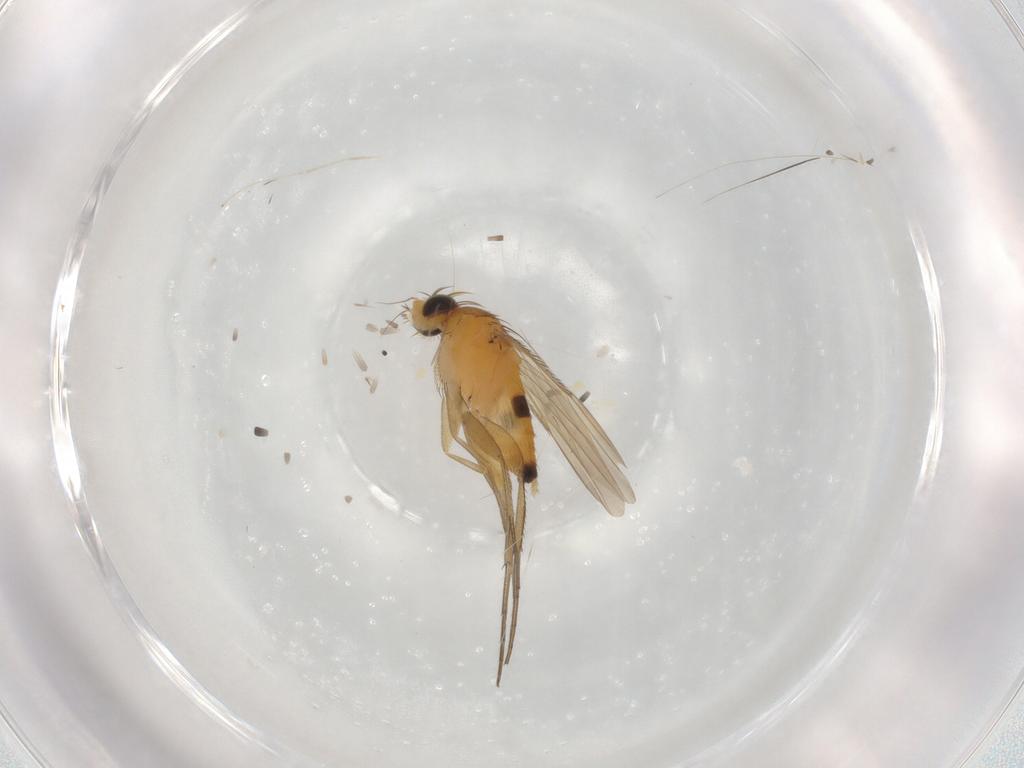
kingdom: Animalia
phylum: Arthropoda
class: Insecta
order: Diptera
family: Phoridae
